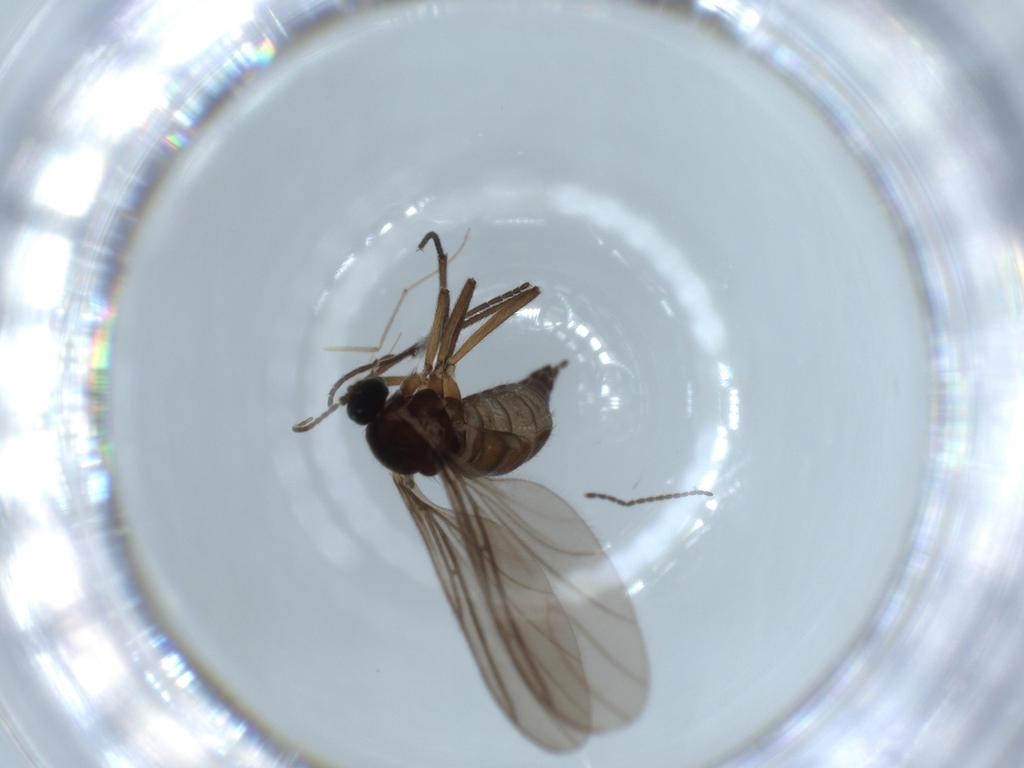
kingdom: Animalia
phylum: Arthropoda
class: Insecta
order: Diptera
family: Sciaridae
